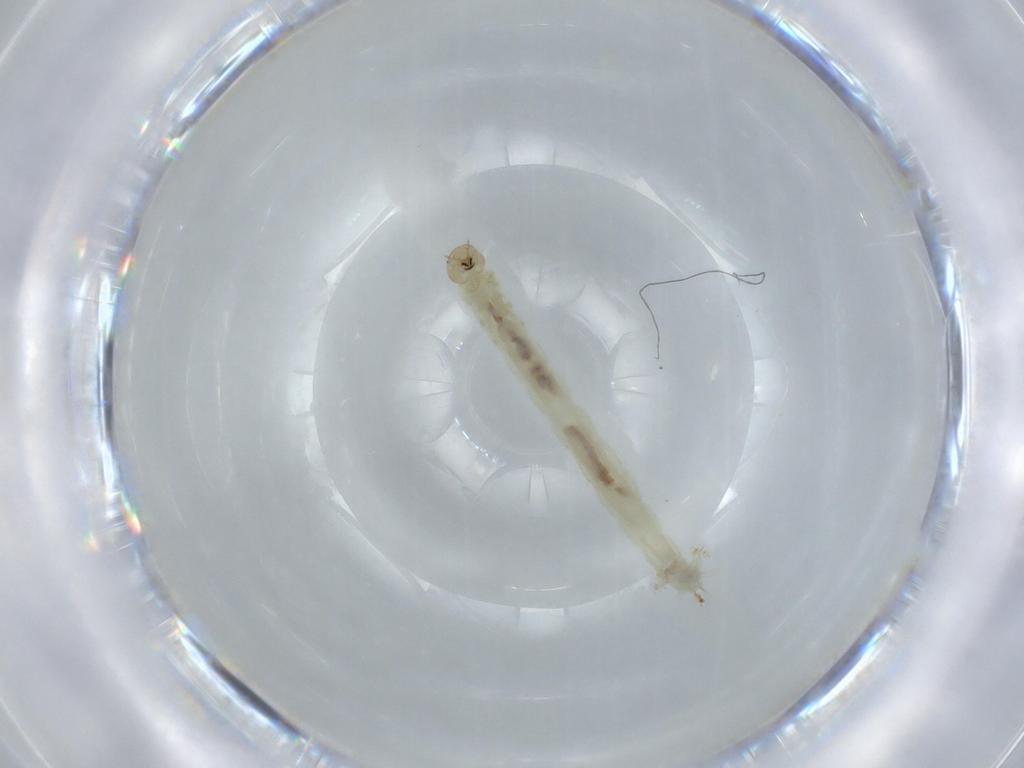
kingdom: Animalia
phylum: Arthropoda
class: Insecta
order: Diptera
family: Chironomidae
